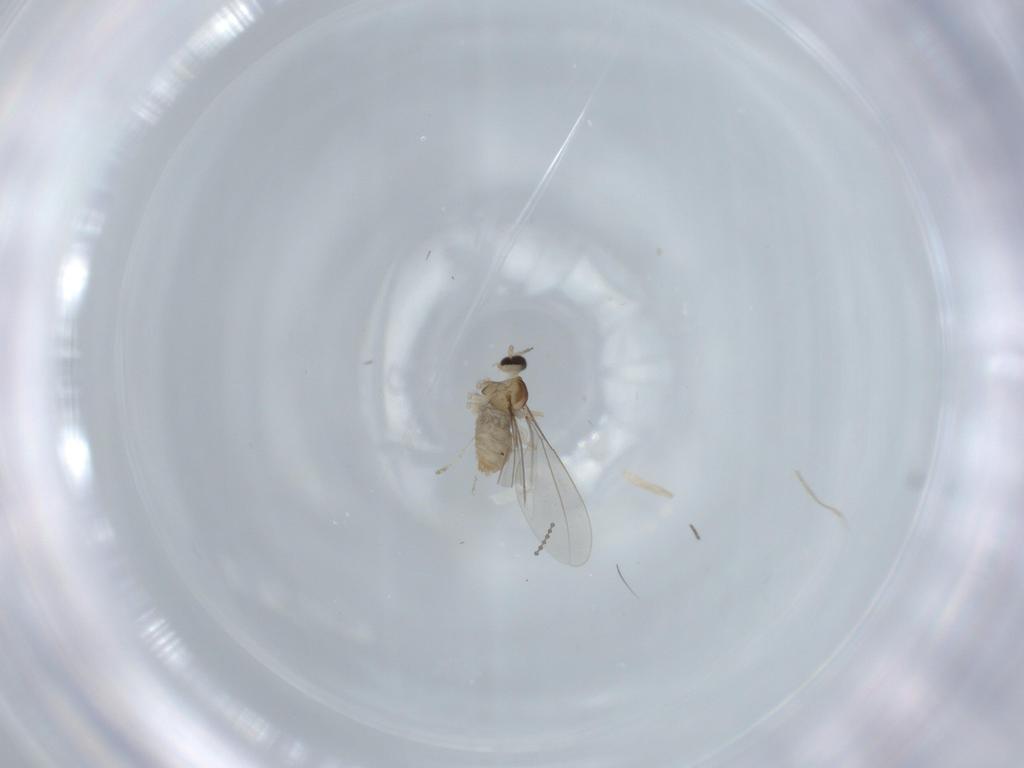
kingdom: Animalia
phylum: Arthropoda
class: Insecta
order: Diptera
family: Cecidomyiidae
